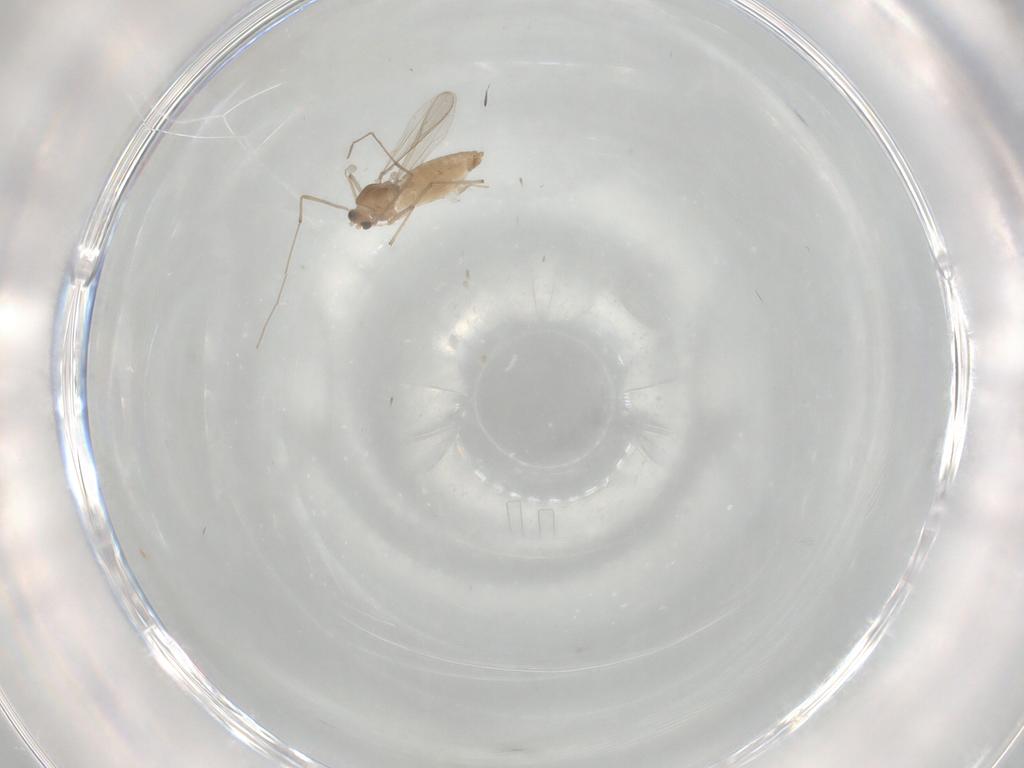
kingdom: Animalia
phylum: Arthropoda
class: Insecta
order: Diptera
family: Chironomidae
